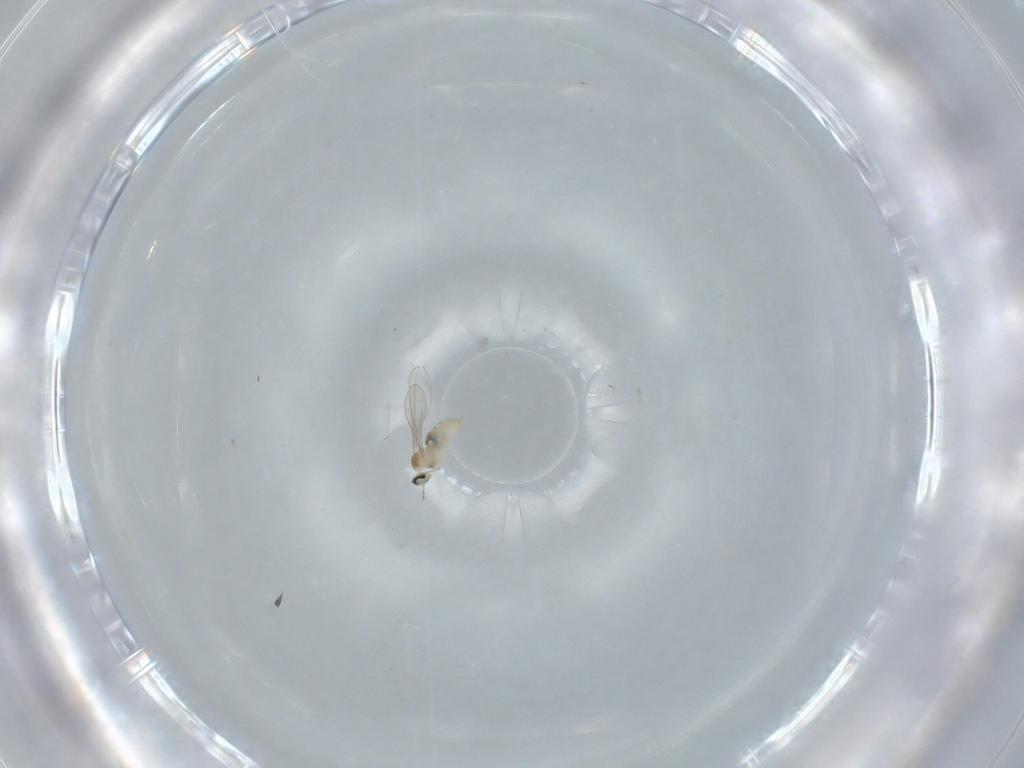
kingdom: Animalia
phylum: Arthropoda
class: Insecta
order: Diptera
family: Cecidomyiidae
